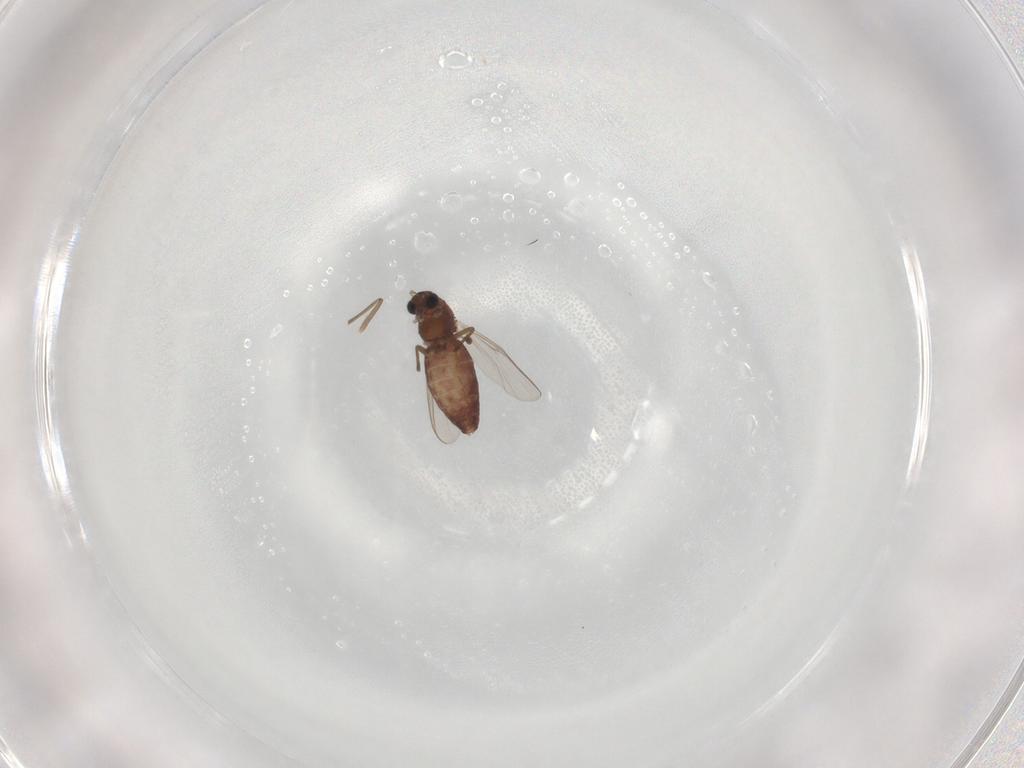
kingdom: Animalia
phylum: Arthropoda
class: Insecta
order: Diptera
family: Chironomidae
